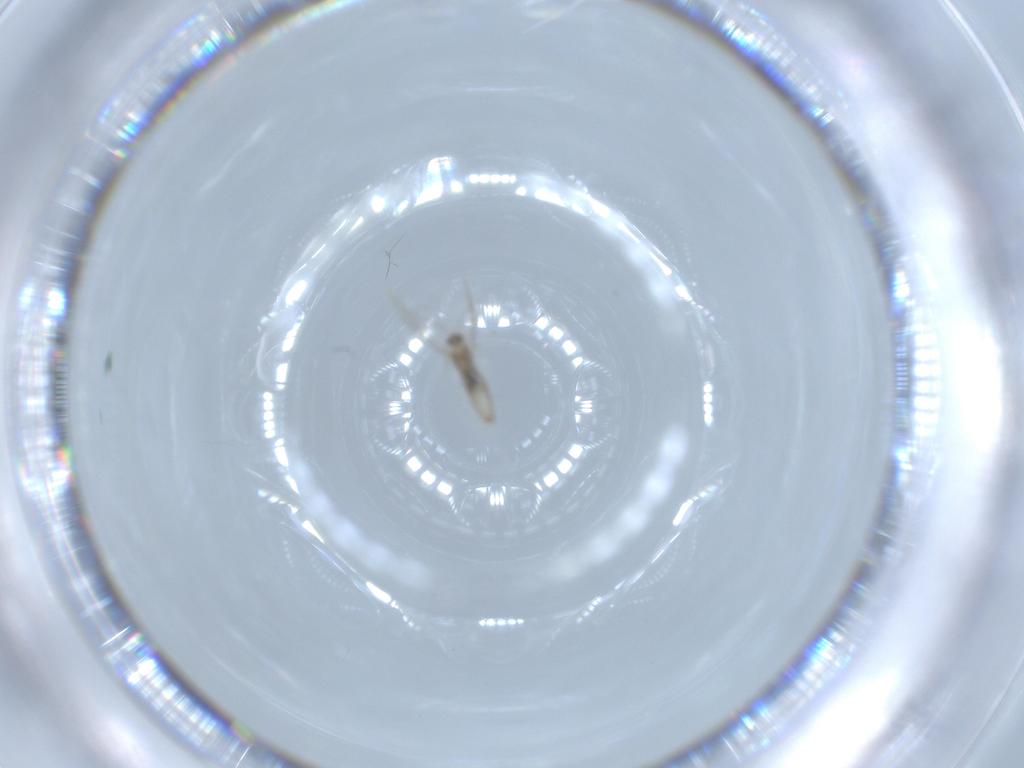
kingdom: Animalia
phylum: Arthropoda
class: Insecta
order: Diptera
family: Cecidomyiidae
